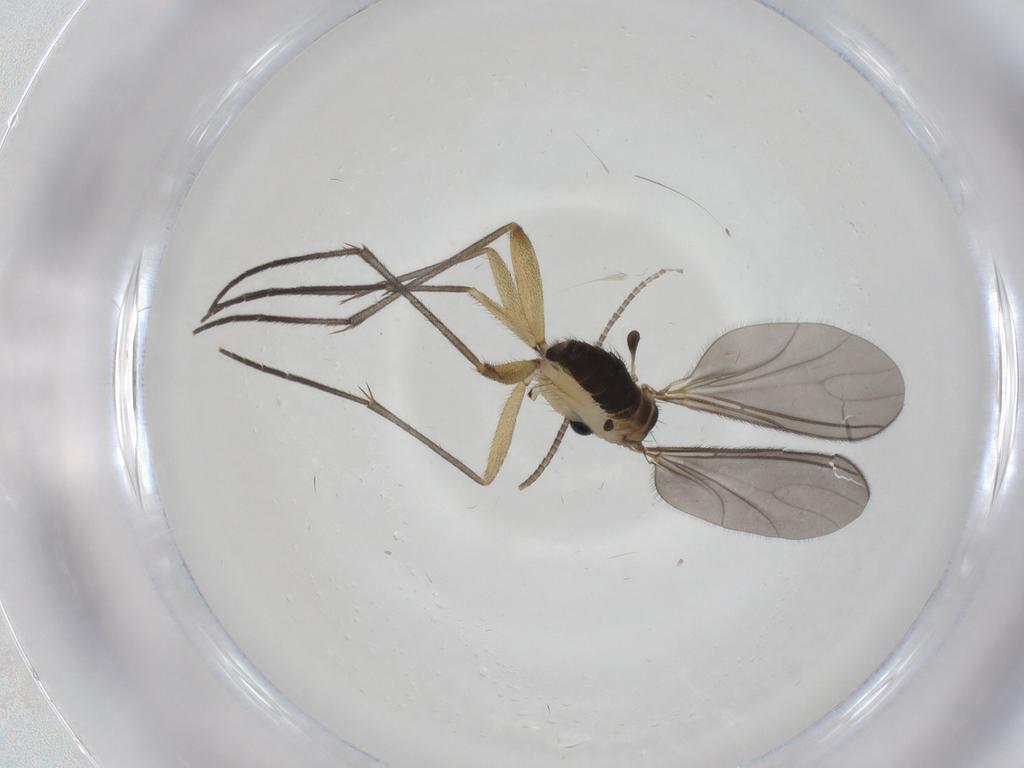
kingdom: Animalia
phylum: Arthropoda
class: Insecta
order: Diptera
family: Sciaridae
